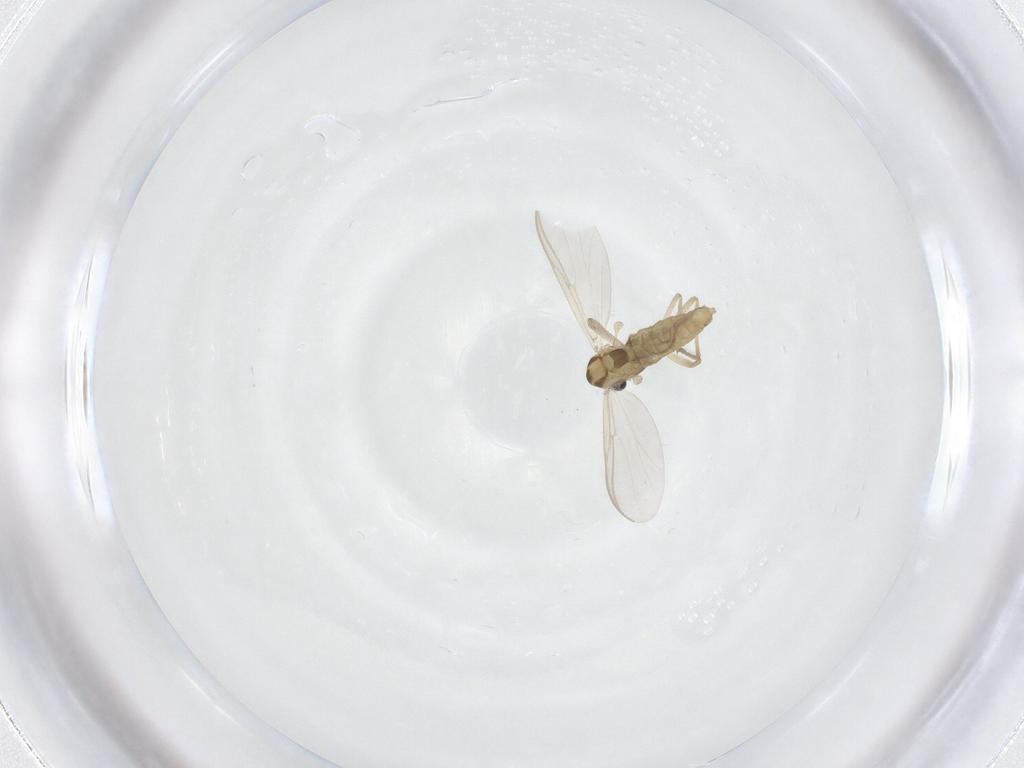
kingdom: Animalia
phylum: Arthropoda
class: Insecta
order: Diptera
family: Chironomidae
